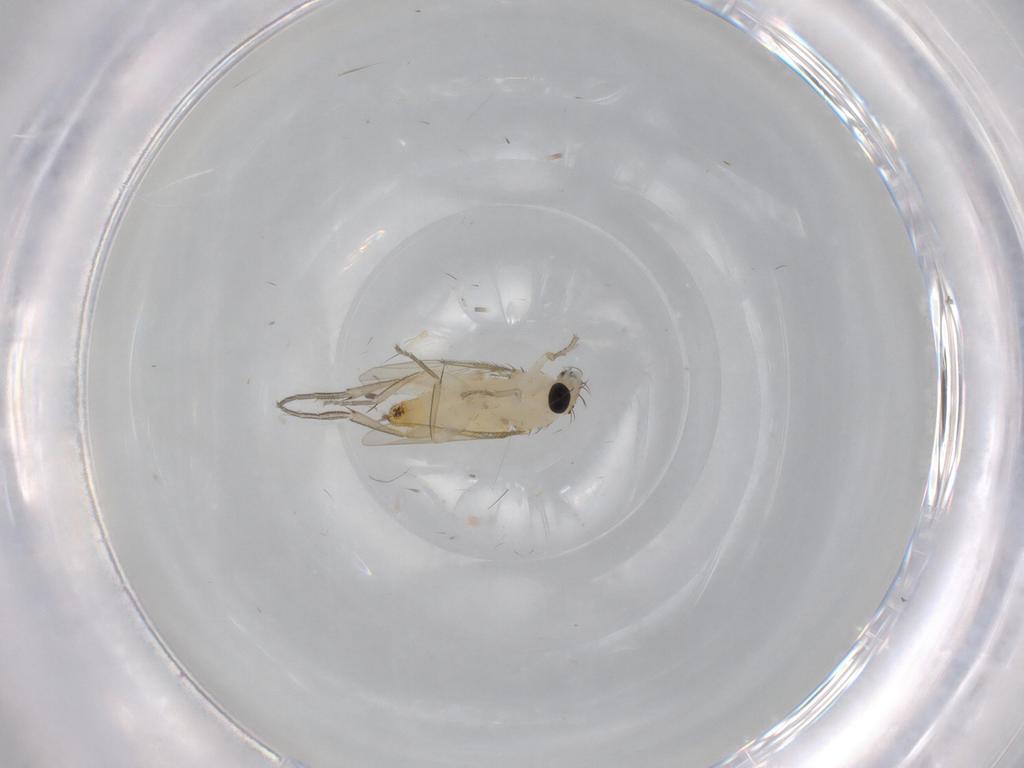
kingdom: Animalia
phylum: Arthropoda
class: Insecta
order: Diptera
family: Phoridae
